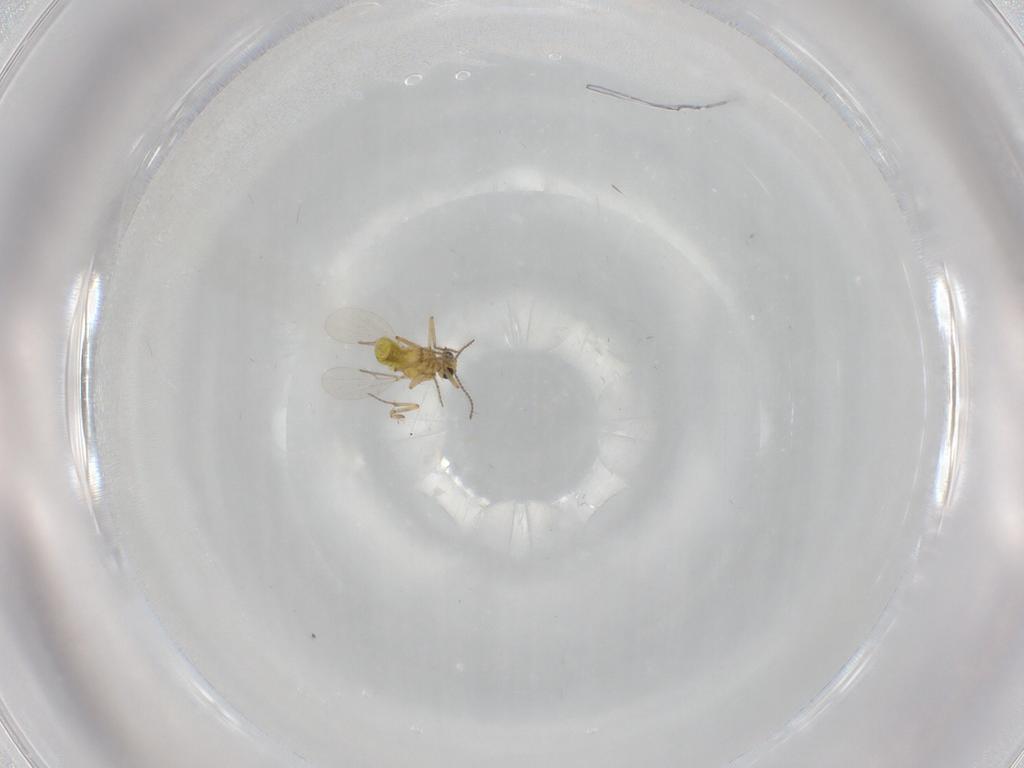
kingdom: Animalia
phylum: Arthropoda
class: Insecta
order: Diptera
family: Ceratopogonidae
